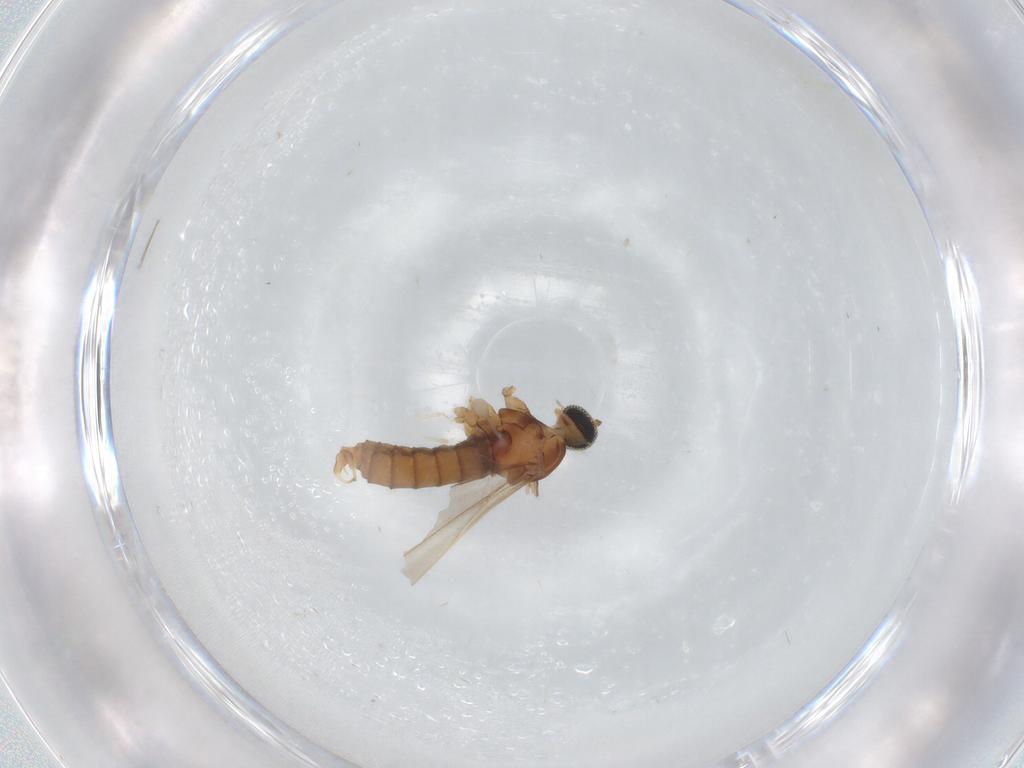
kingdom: Animalia
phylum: Arthropoda
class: Insecta
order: Diptera
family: Cecidomyiidae
